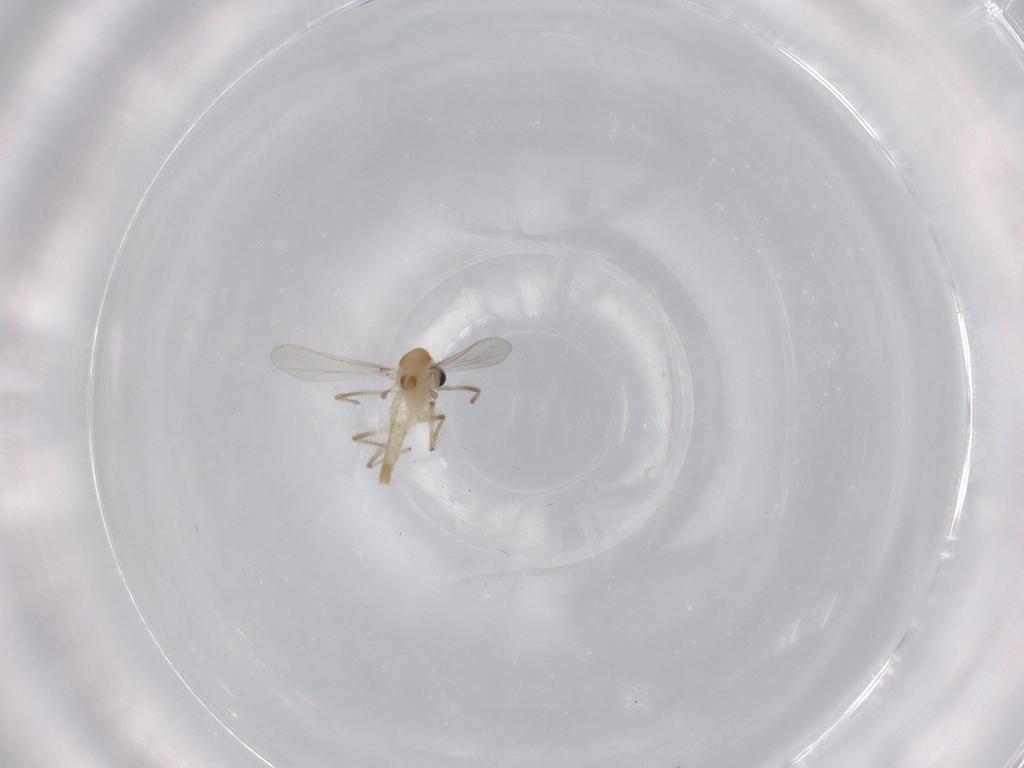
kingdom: Animalia
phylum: Arthropoda
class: Insecta
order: Diptera
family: Chironomidae
